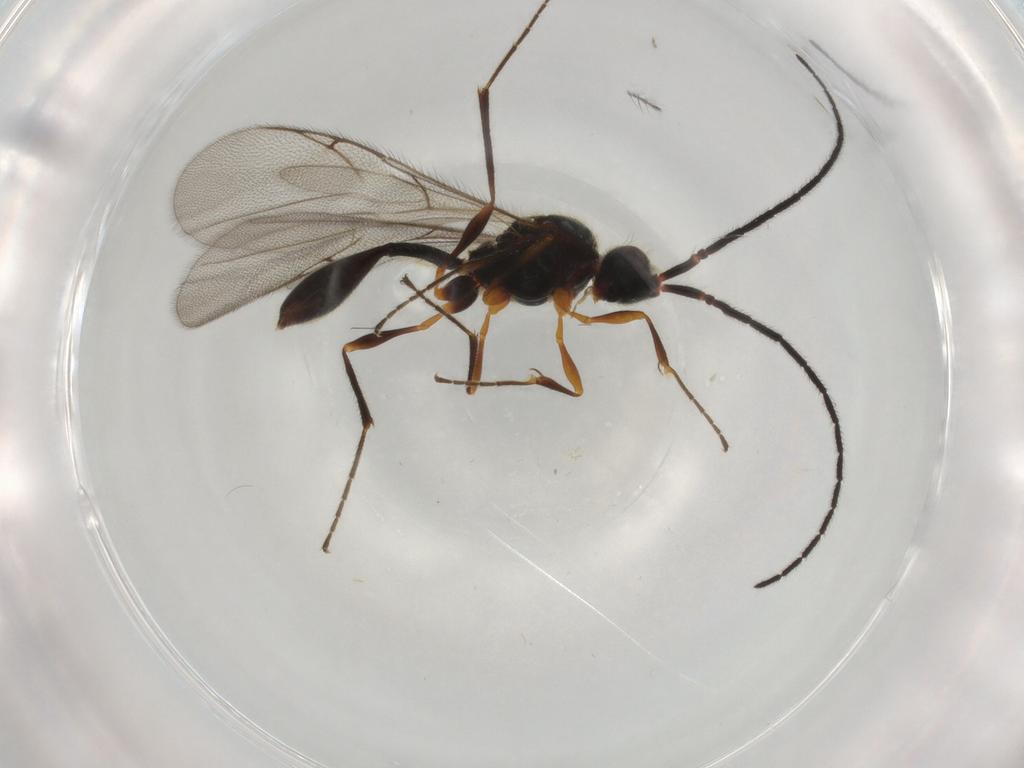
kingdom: Animalia
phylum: Arthropoda
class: Insecta
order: Hymenoptera
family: Diapriidae
